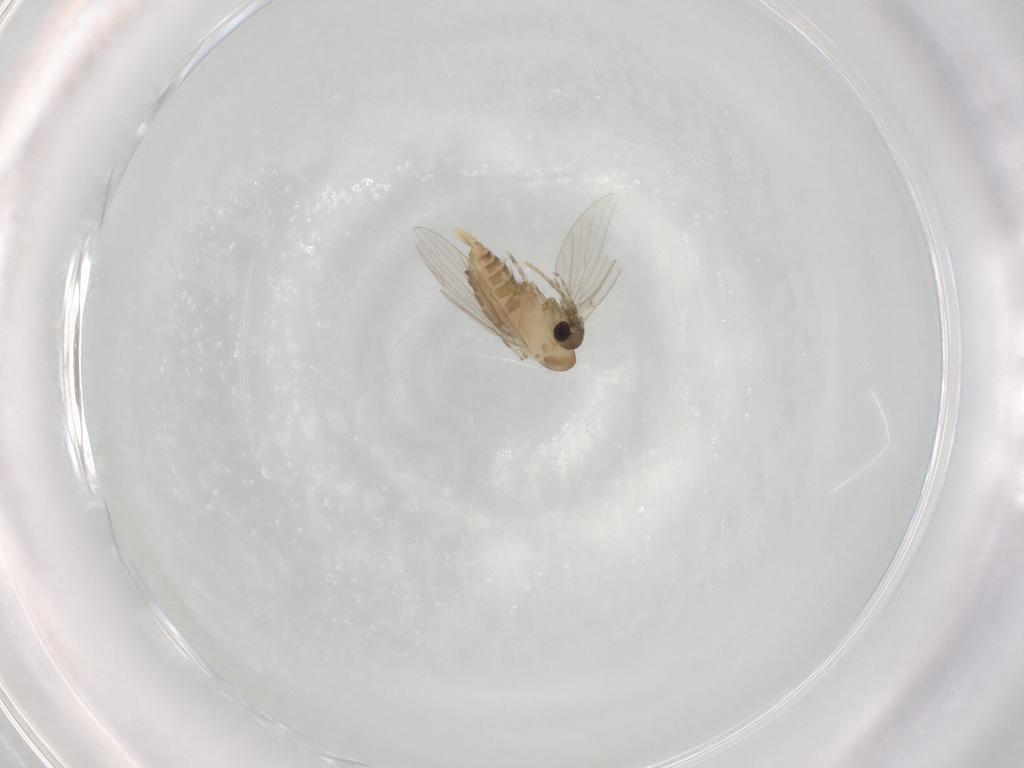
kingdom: Animalia
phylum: Arthropoda
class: Insecta
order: Diptera
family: Psychodidae
